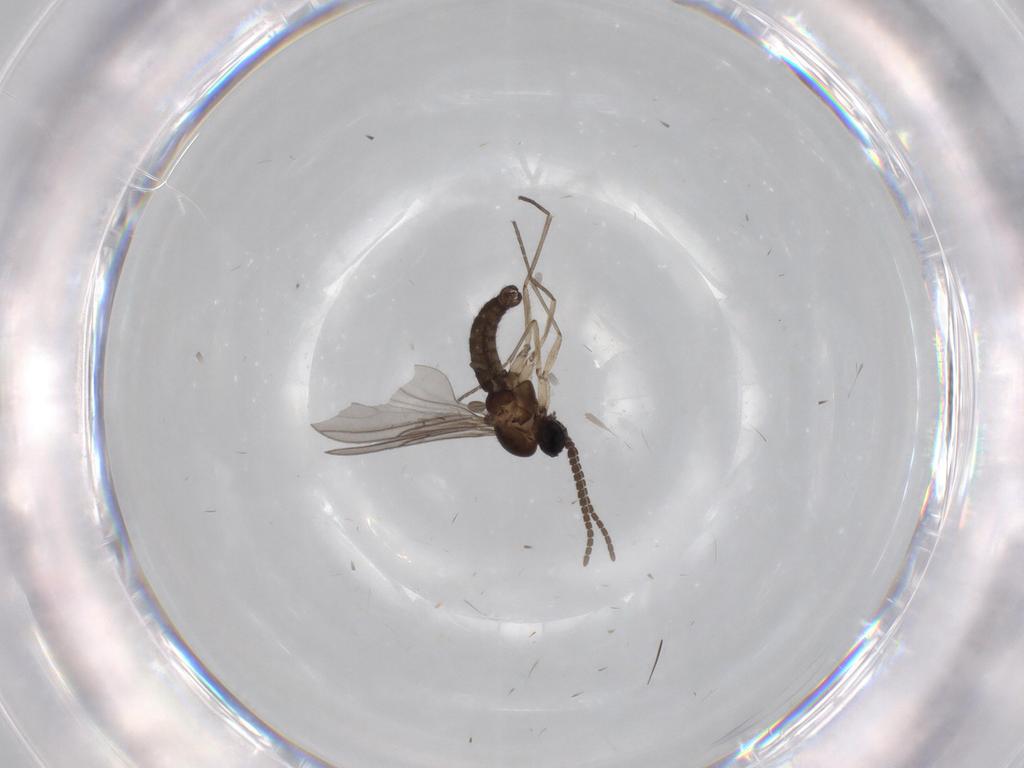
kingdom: Animalia
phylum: Arthropoda
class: Insecta
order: Diptera
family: Sciaridae
